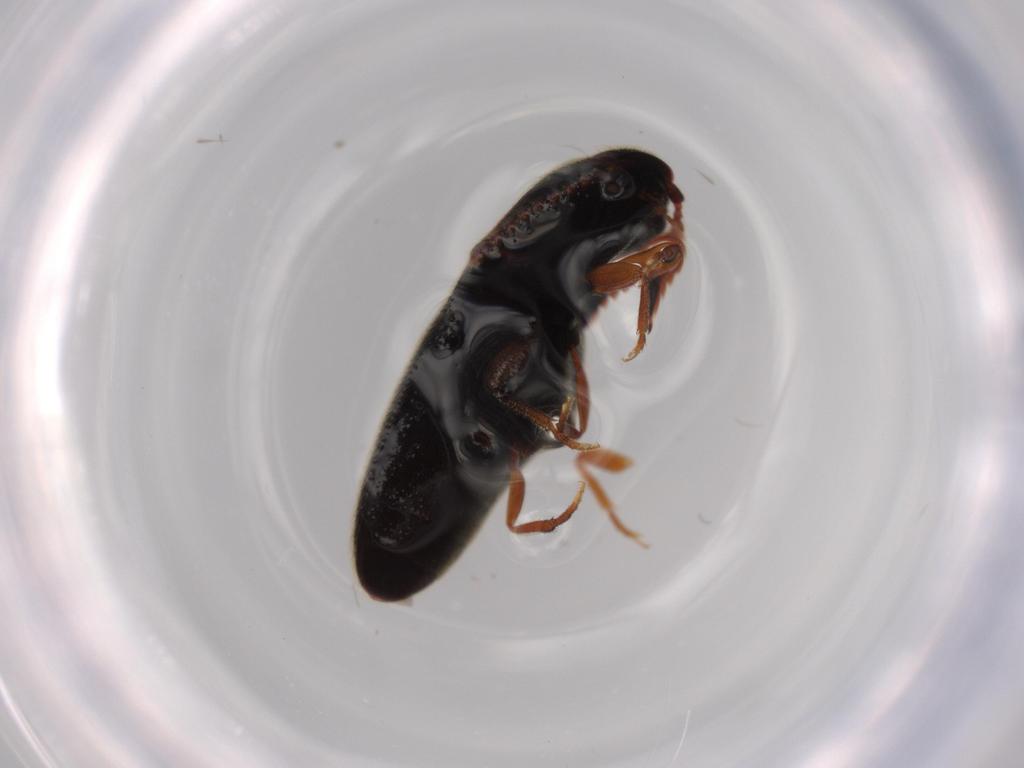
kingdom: Animalia
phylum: Arthropoda
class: Insecta
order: Coleoptera
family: Elateridae
